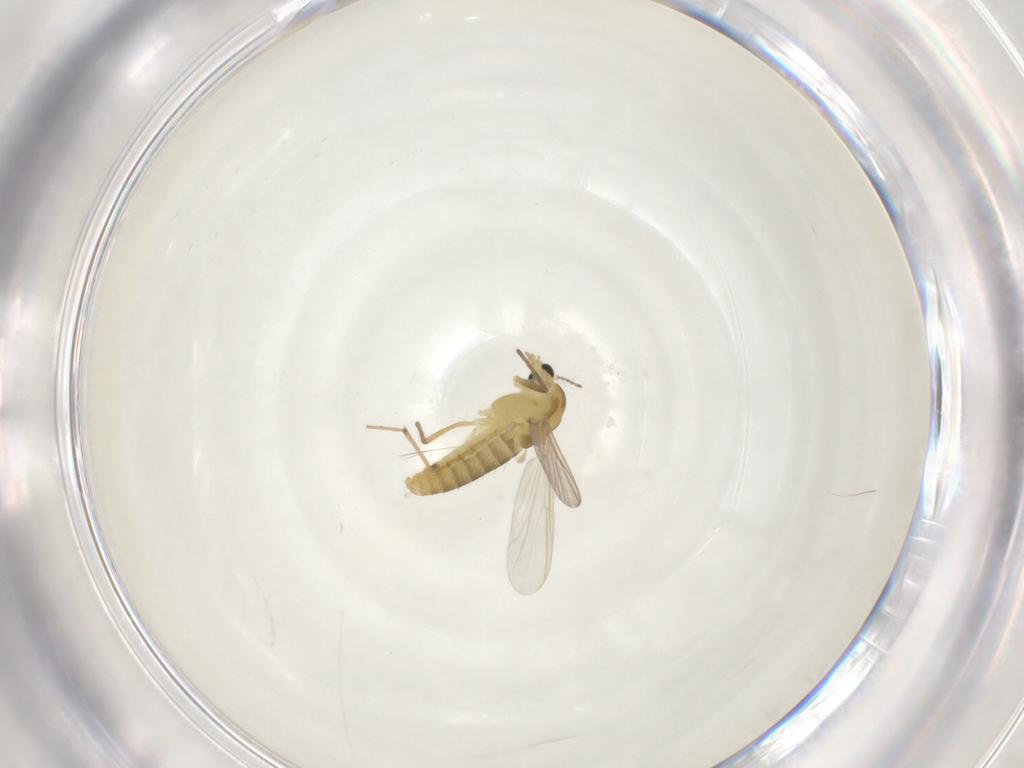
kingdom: Animalia
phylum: Arthropoda
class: Insecta
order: Diptera
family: Chironomidae
